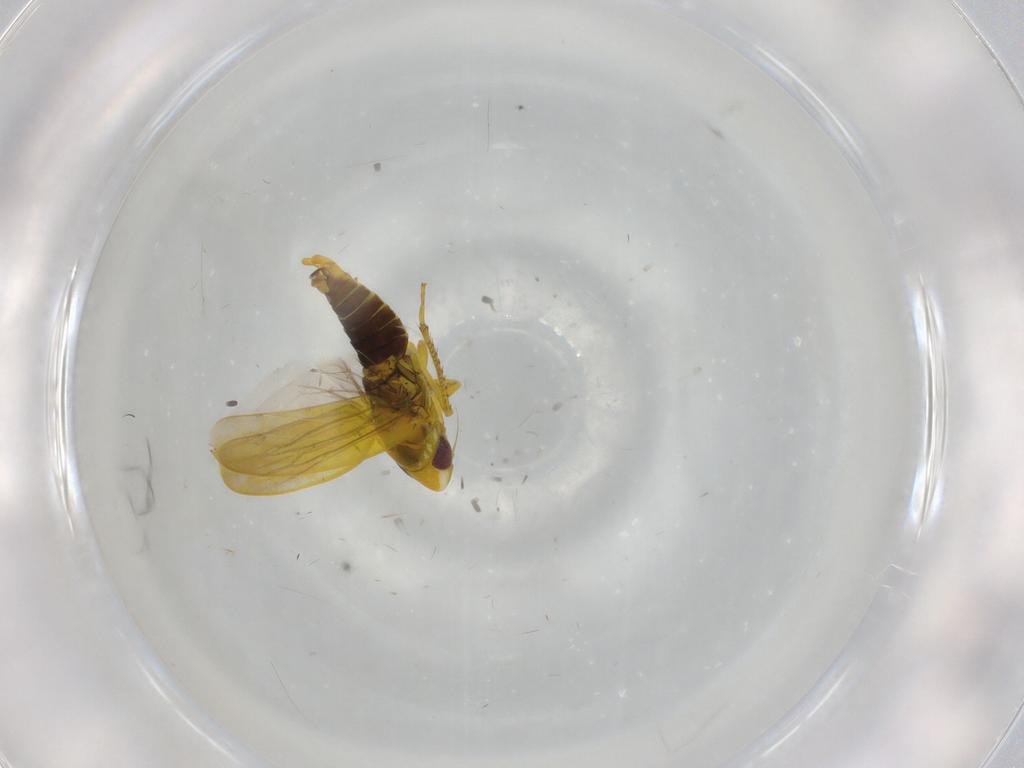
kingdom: Animalia
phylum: Arthropoda
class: Insecta
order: Hemiptera
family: Cicadellidae
